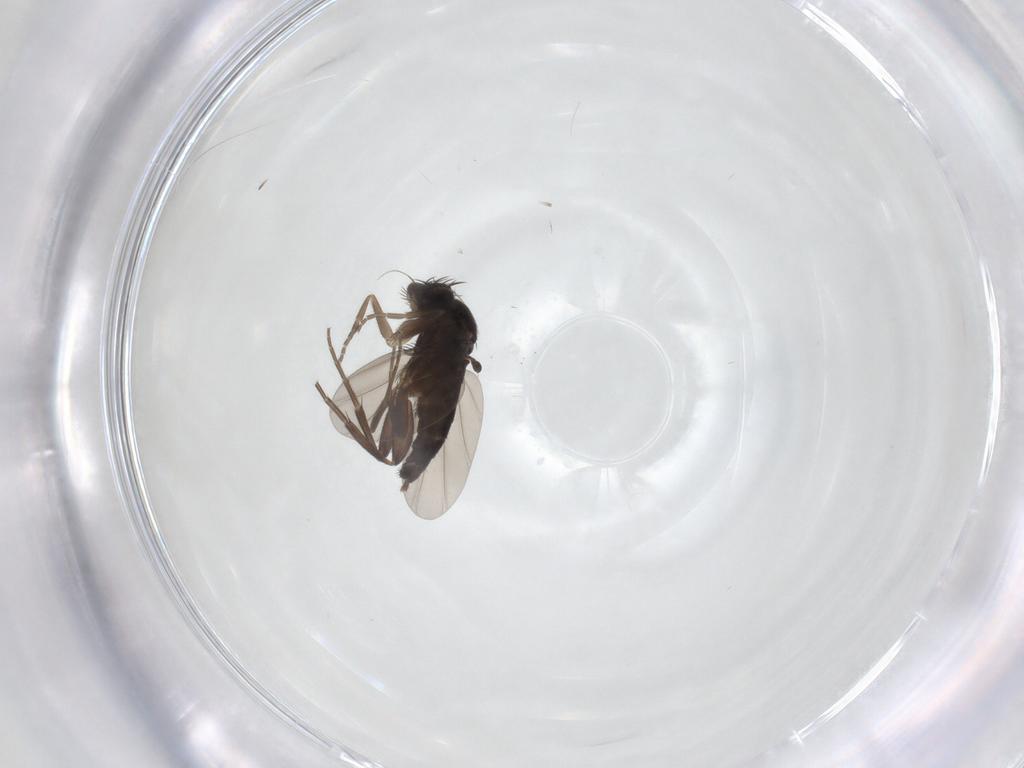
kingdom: Animalia
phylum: Arthropoda
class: Insecta
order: Diptera
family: Phoridae
